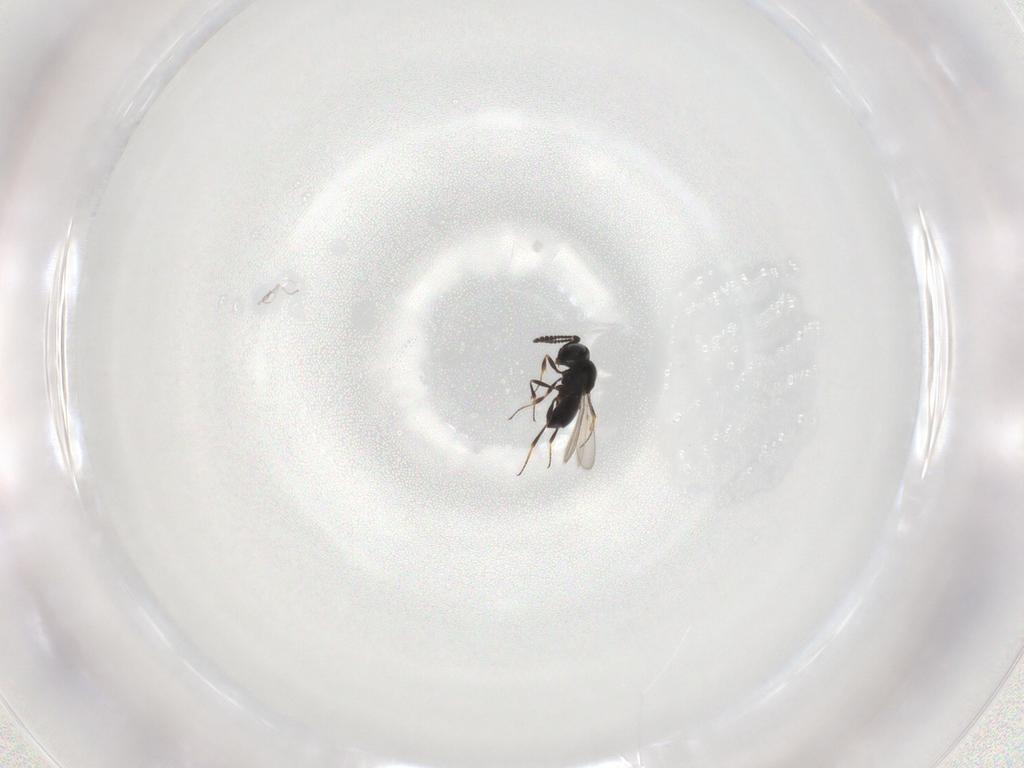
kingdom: Animalia
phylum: Arthropoda
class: Insecta
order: Hymenoptera
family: Scelionidae
